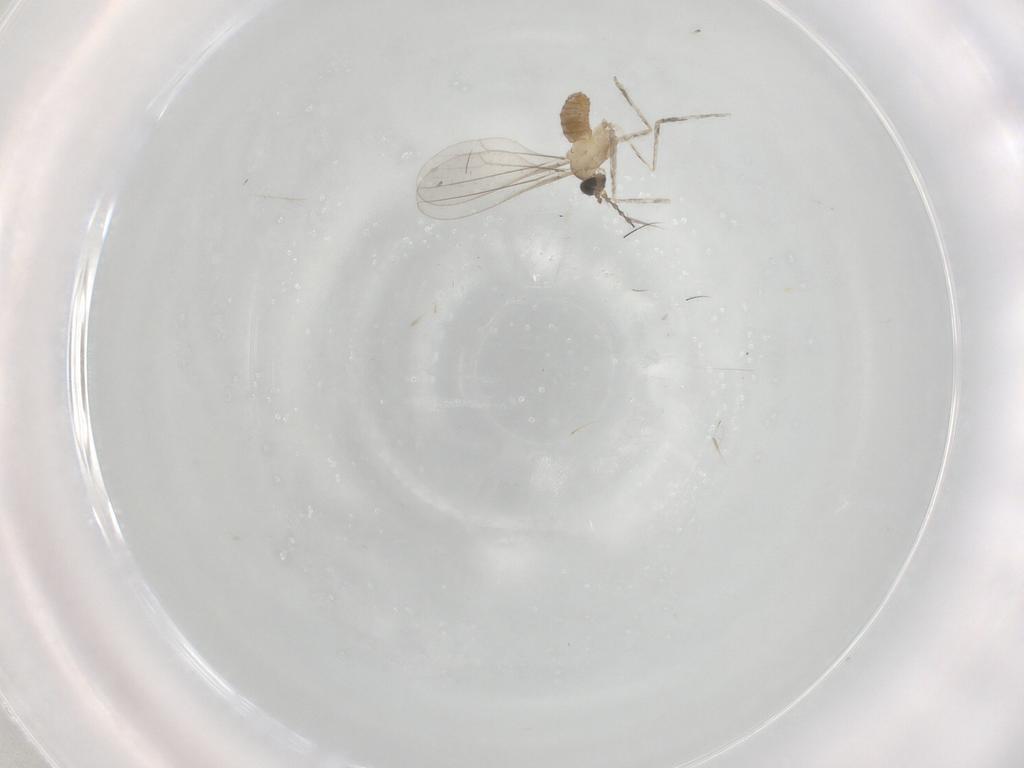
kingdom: Animalia
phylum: Arthropoda
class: Insecta
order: Diptera
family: Cecidomyiidae
